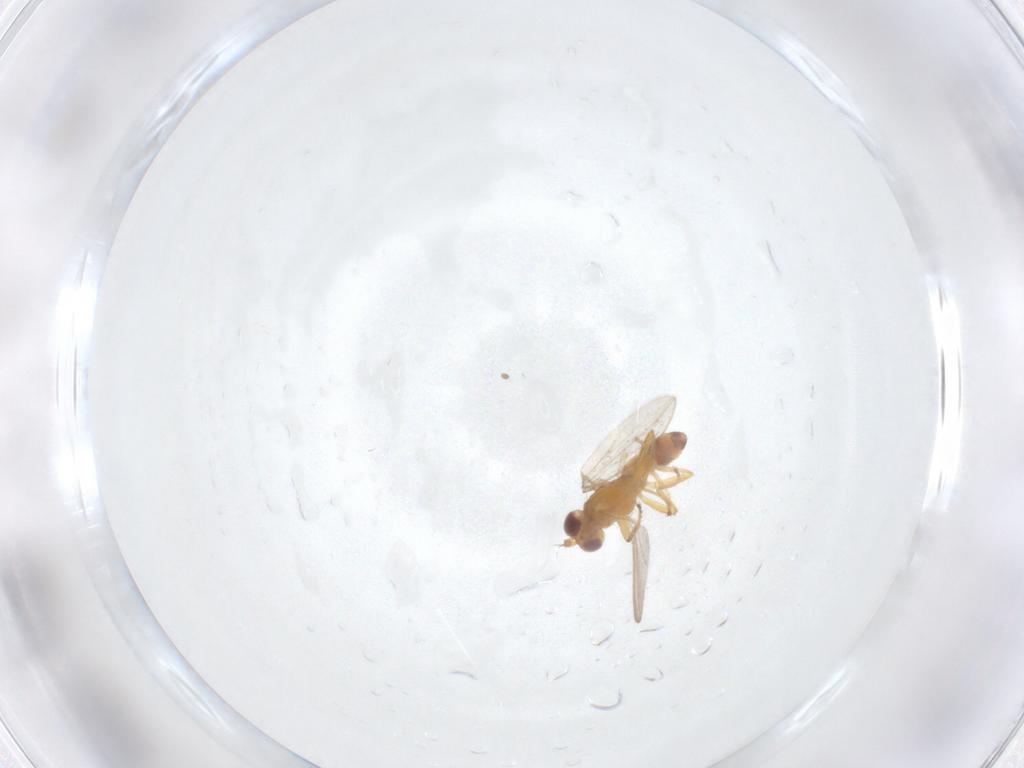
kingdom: Animalia
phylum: Arthropoda
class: Insecta
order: Diptera
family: Periscelididae
